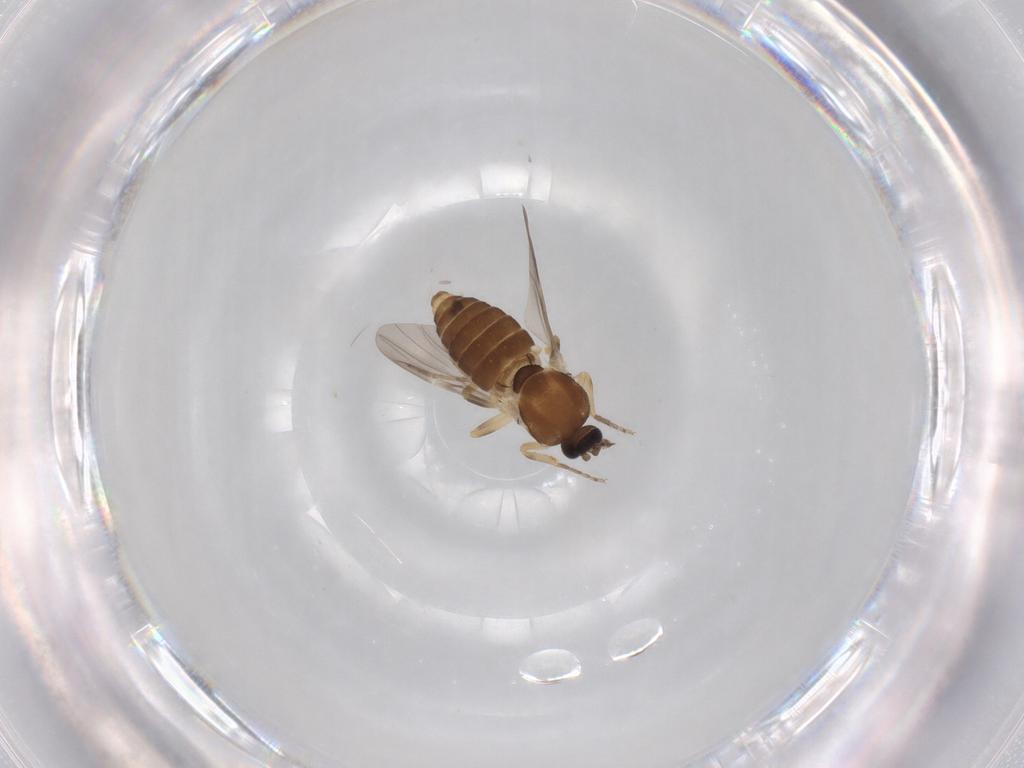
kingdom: Animalia
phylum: Arthropoda
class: Insecta
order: Diptera
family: Ceratopogonidae
